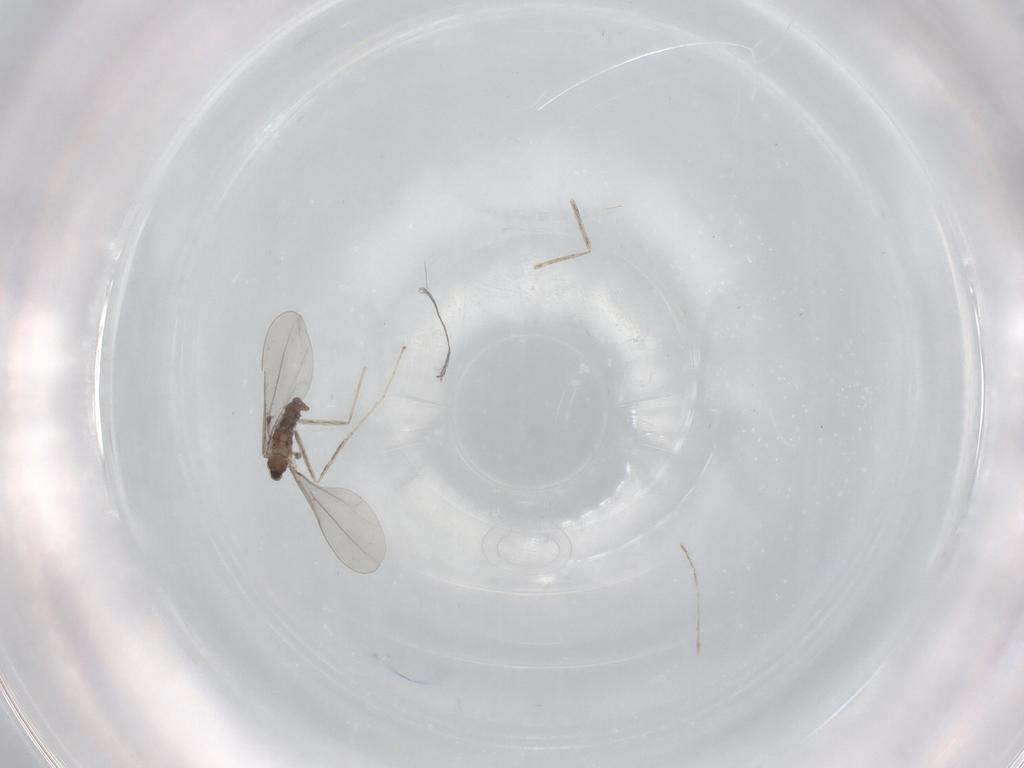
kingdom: Animalia
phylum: Arthropoda
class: Insecta
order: Diptera
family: Cecidomyiidae
